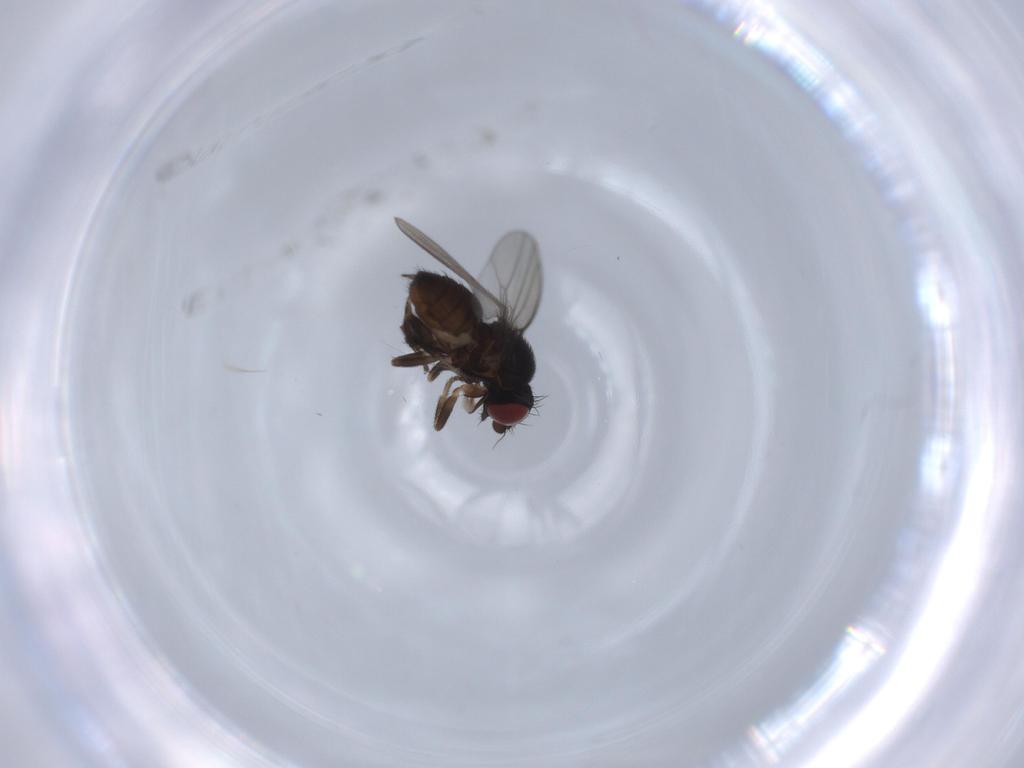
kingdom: Animalia
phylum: Arthropoda
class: Insecta
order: Diptera
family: Milichiidae
